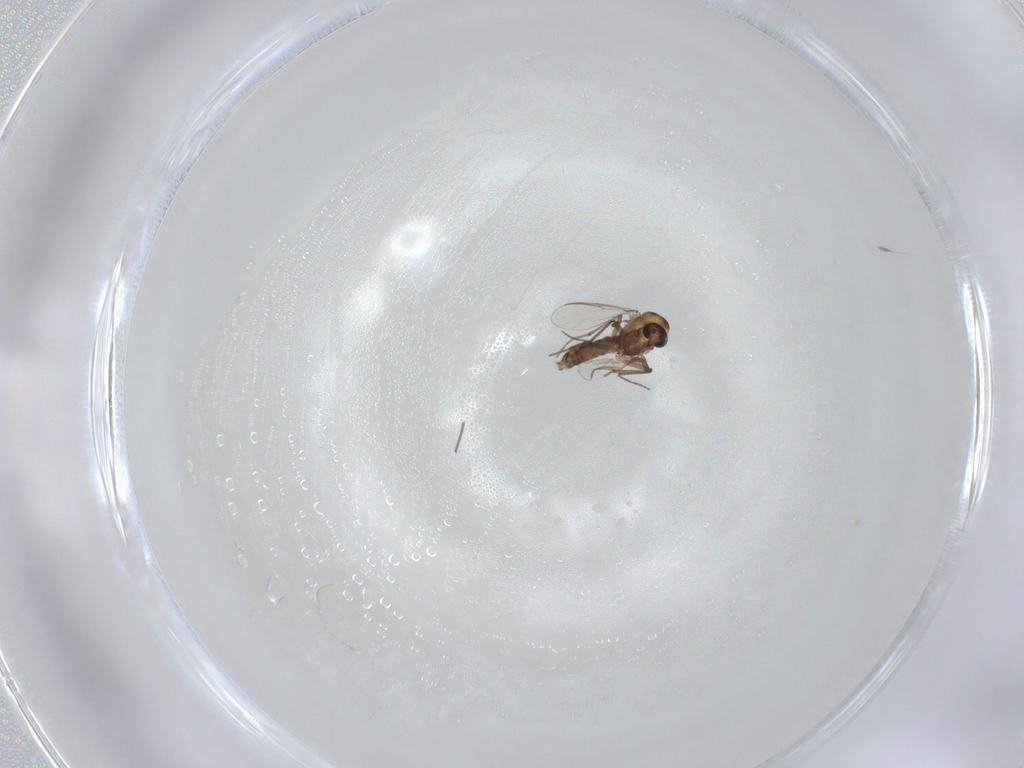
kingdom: Animalia
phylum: Arthropoda
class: Insecta
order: Diptera
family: Chironomidae
